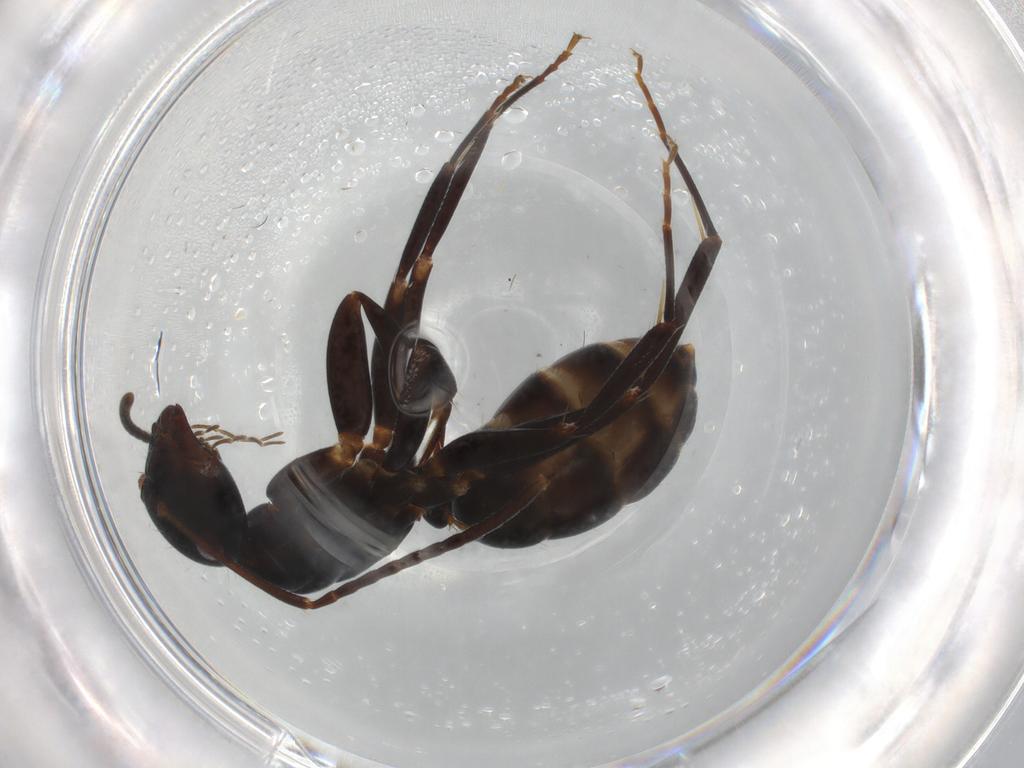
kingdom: Animalia
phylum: Arthropoda
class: Insecta
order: Hymenoptera
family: Formicidae
